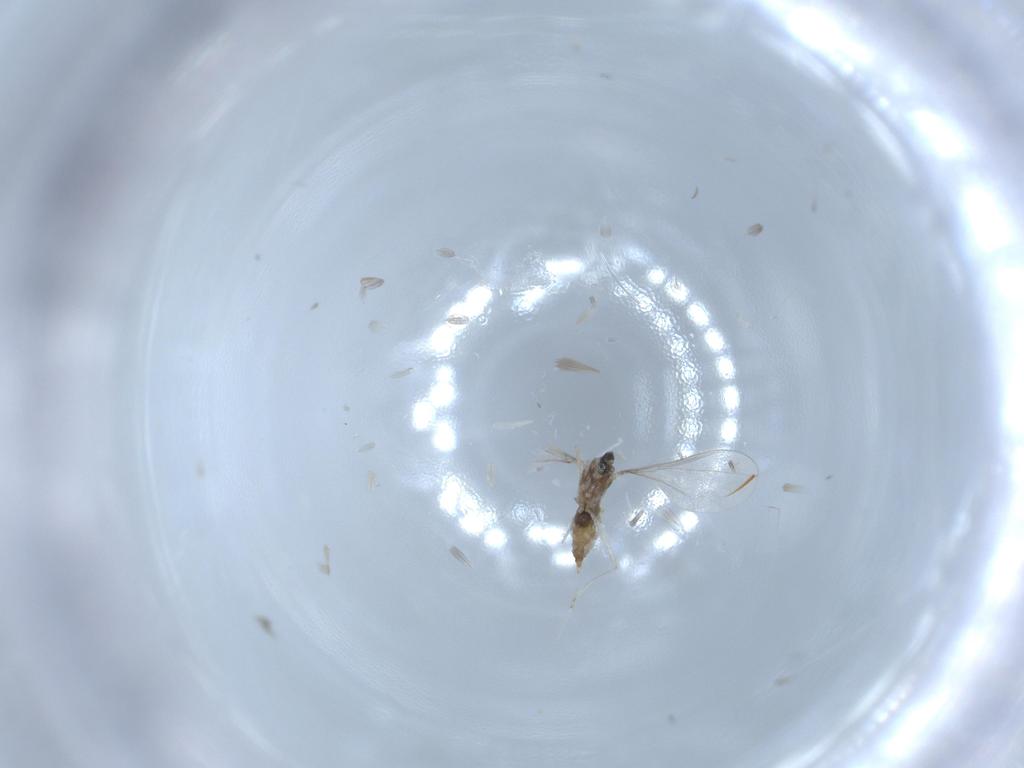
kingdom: Animalia
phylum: Arthropoda
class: Insecta
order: Diptera
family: Cecidomyiidae
